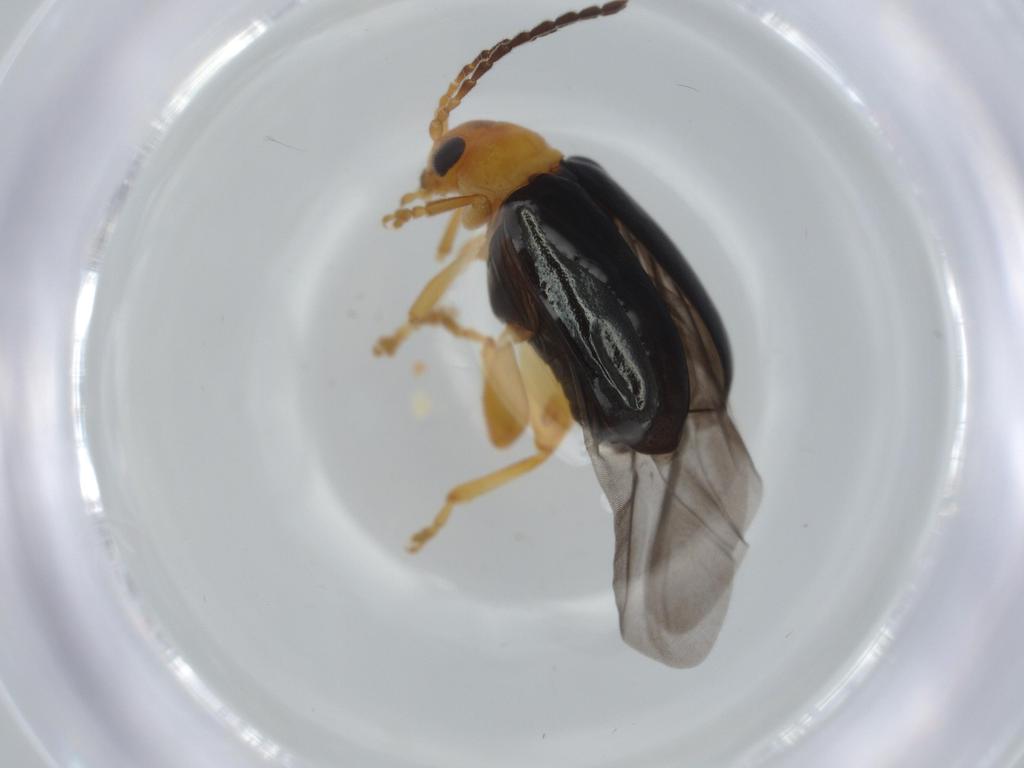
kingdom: Animalia
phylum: Arthropoda
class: Insecta
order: Coleoptera
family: Chrysomelidae
